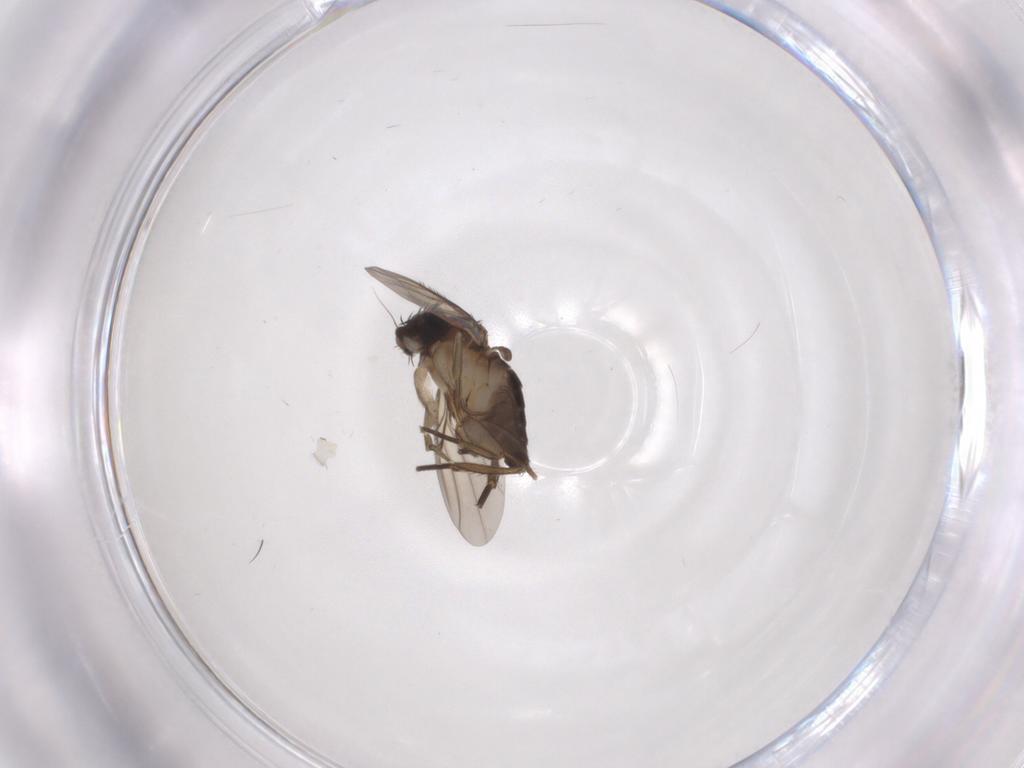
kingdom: Animalia
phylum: Arthropoda
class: Insecta
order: Diptera
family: Phoridae
